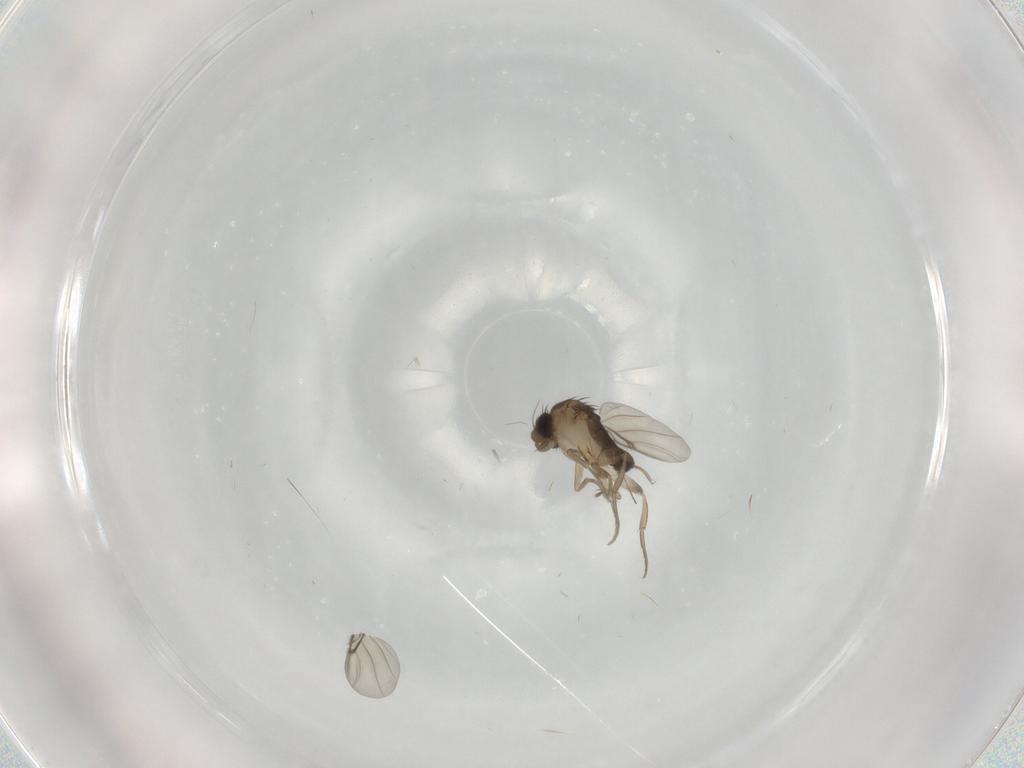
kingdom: Animalia
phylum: Arthropoda
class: Insecta
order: Diptera
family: Phoridae
